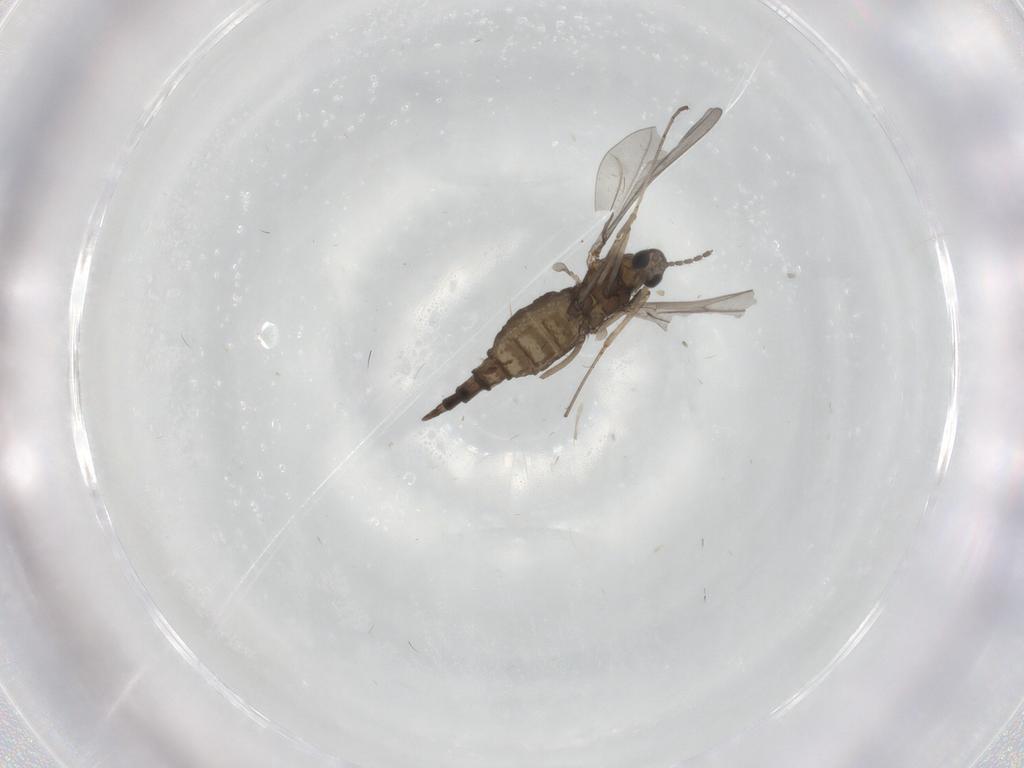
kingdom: Animalia
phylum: Arthropoda
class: Insecta
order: Diptera
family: Cecidomyiidae
